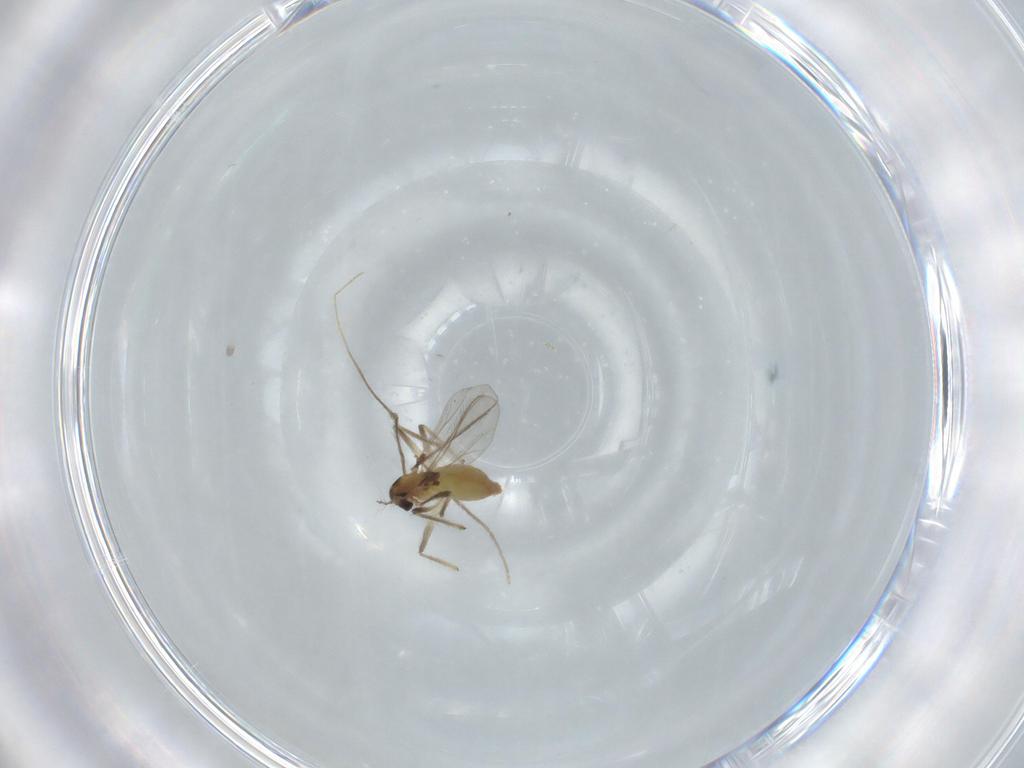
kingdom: Animalia
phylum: Arthropoda
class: Insecta
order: Diptera
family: Chironomidae
